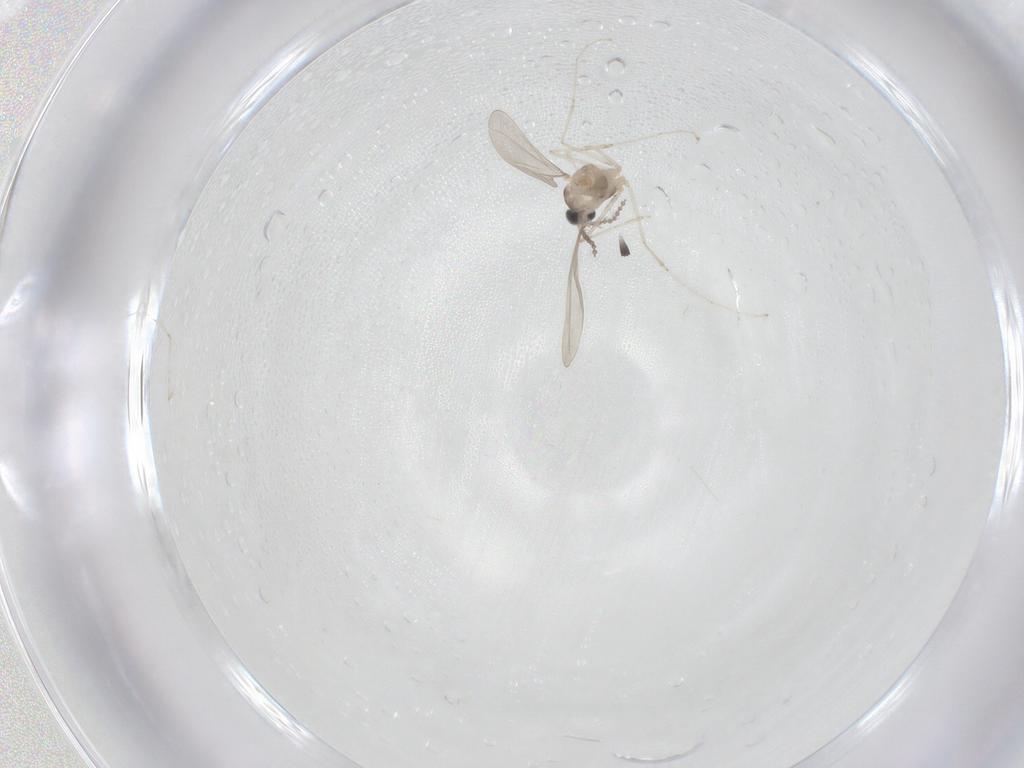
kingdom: Animalia
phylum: Arthropoda
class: Insecta
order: Diptera
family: Cecidomyiidae
